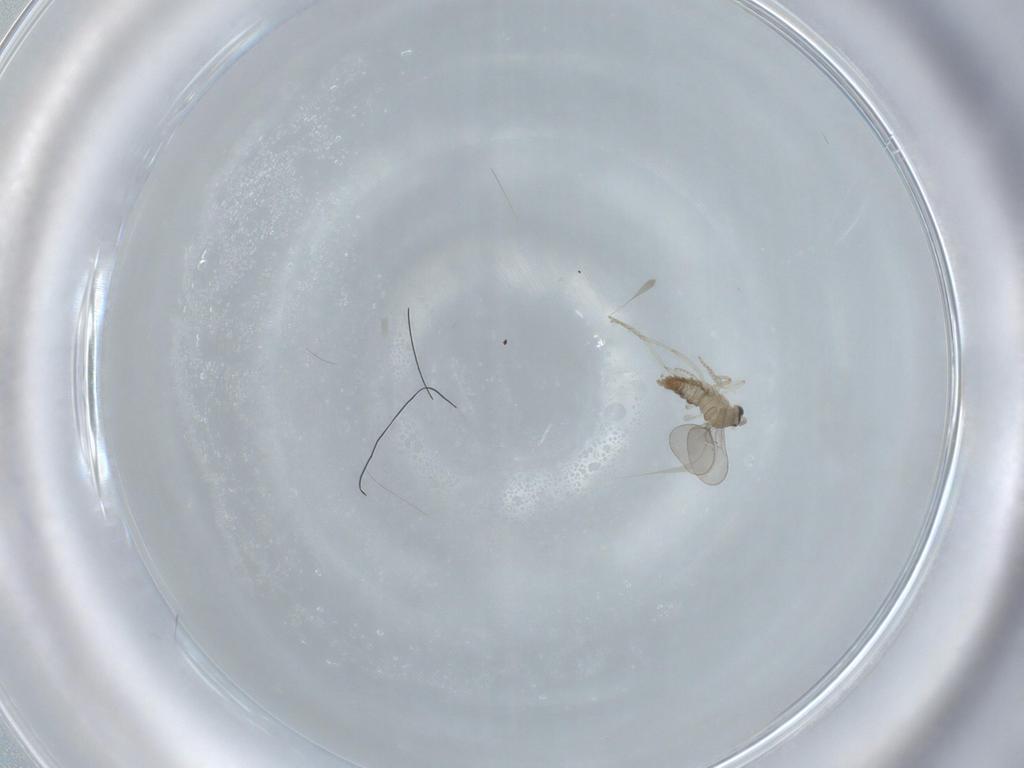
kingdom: Animalia
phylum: Arthropoda
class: Insecta
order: Diptera
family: Cecidomyiidae
